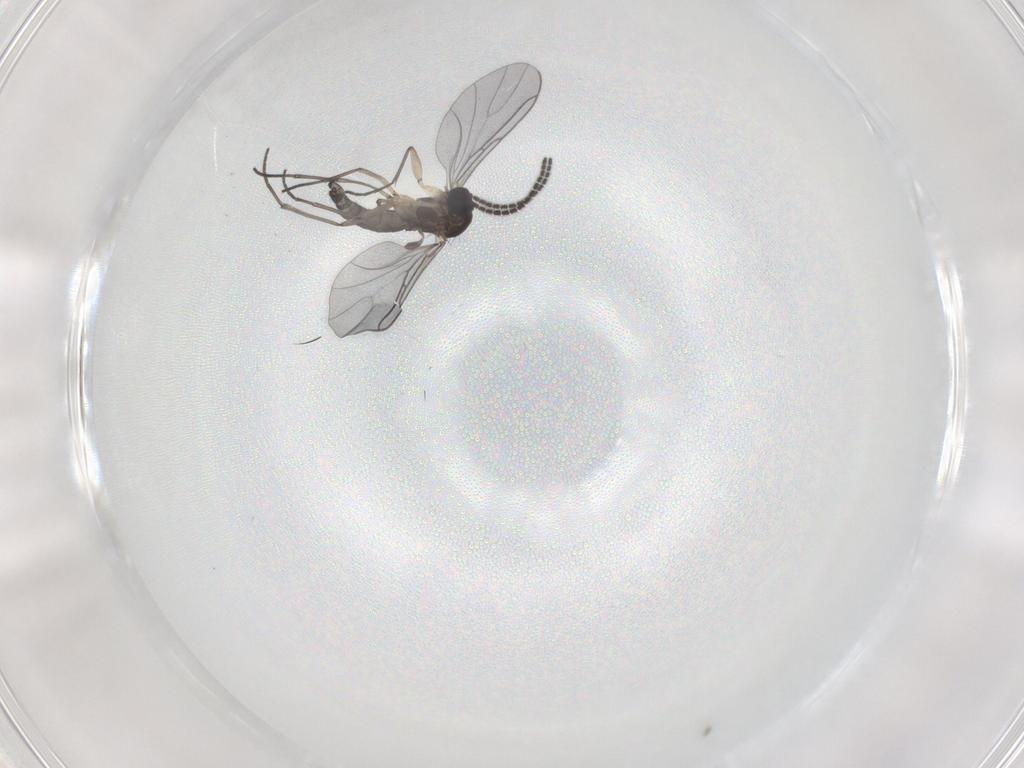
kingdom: Animalia
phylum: Arthropoda
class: Insecta
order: Diptera
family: Sciaridae
